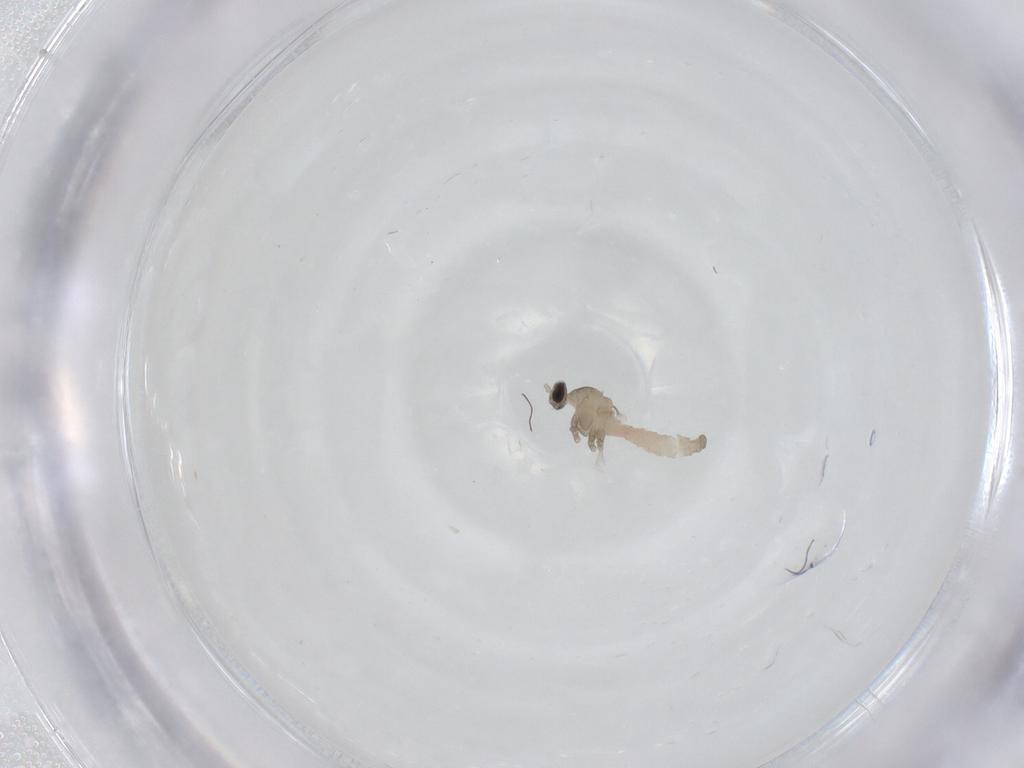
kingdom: Animalia
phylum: Arthropoda
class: Insecta
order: Diptera
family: Cecidomyiidae
